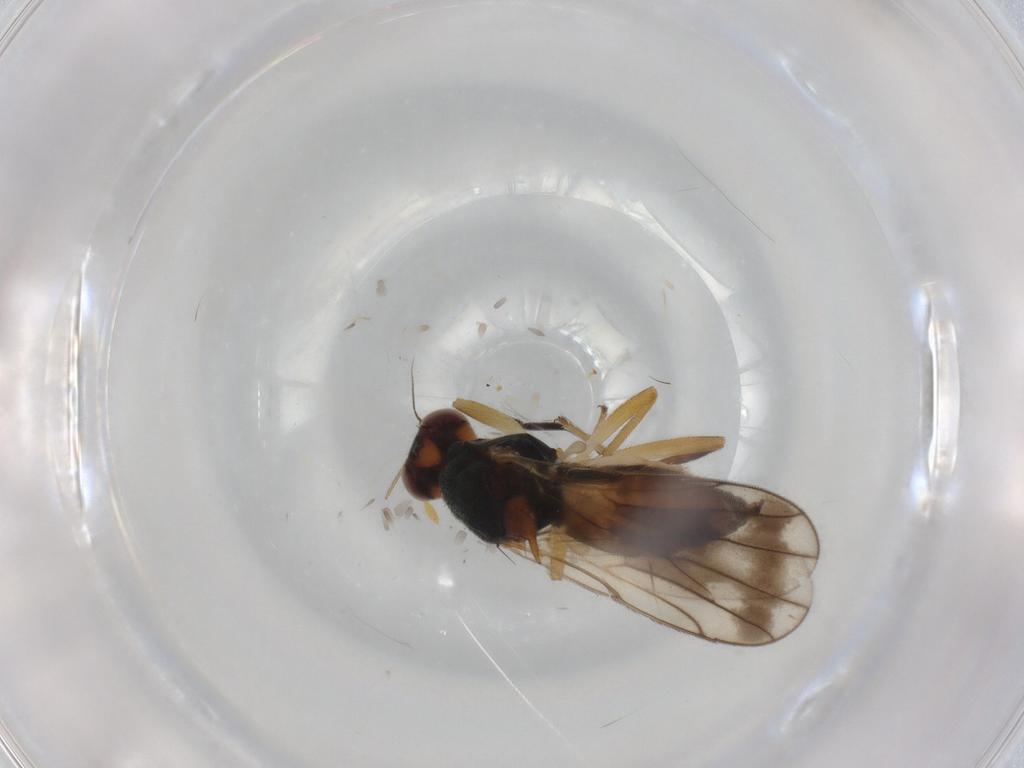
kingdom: Animalia
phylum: Arthropoda
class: Insecta
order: Diptera
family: Chloropidae
